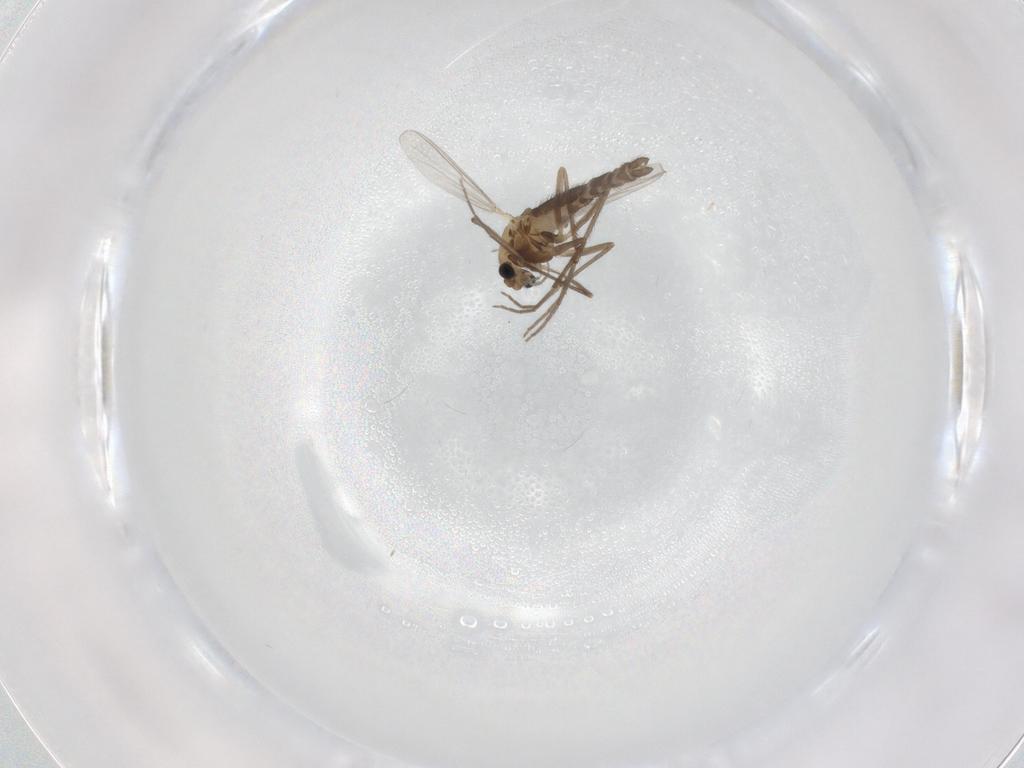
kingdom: Animalia
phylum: Arthropoda
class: Insecta
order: Diptera
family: Chironomidae
